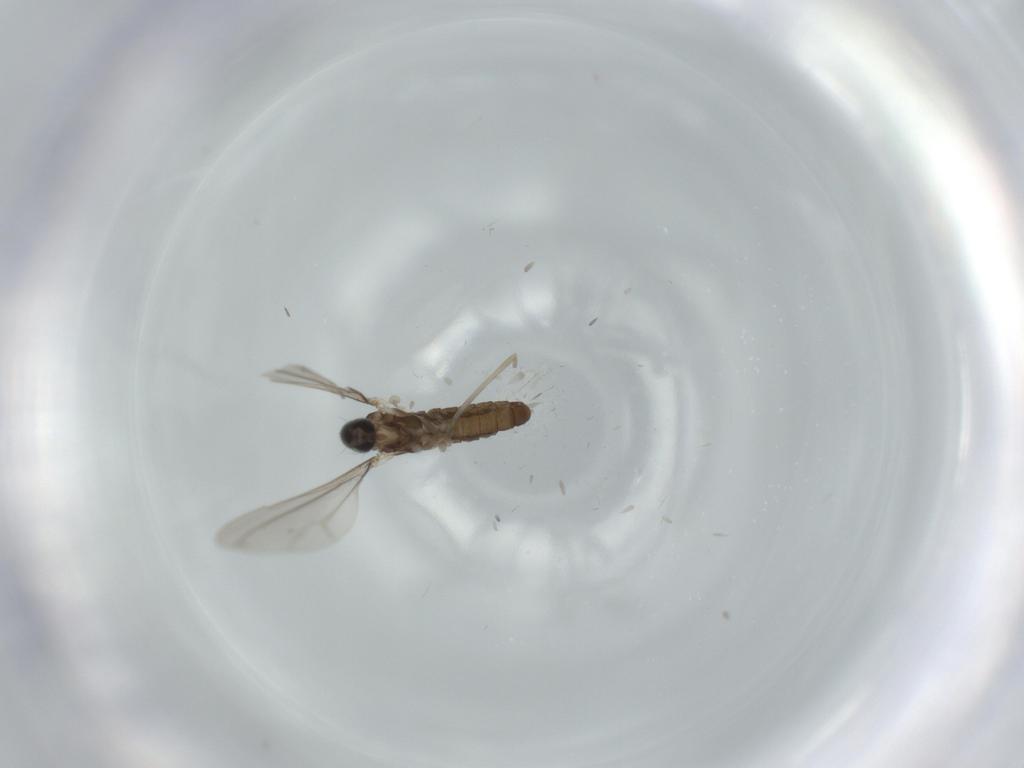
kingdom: Animalia
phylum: Arthropoda
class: Insecta
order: Diptera
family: Cecidomyiidae
